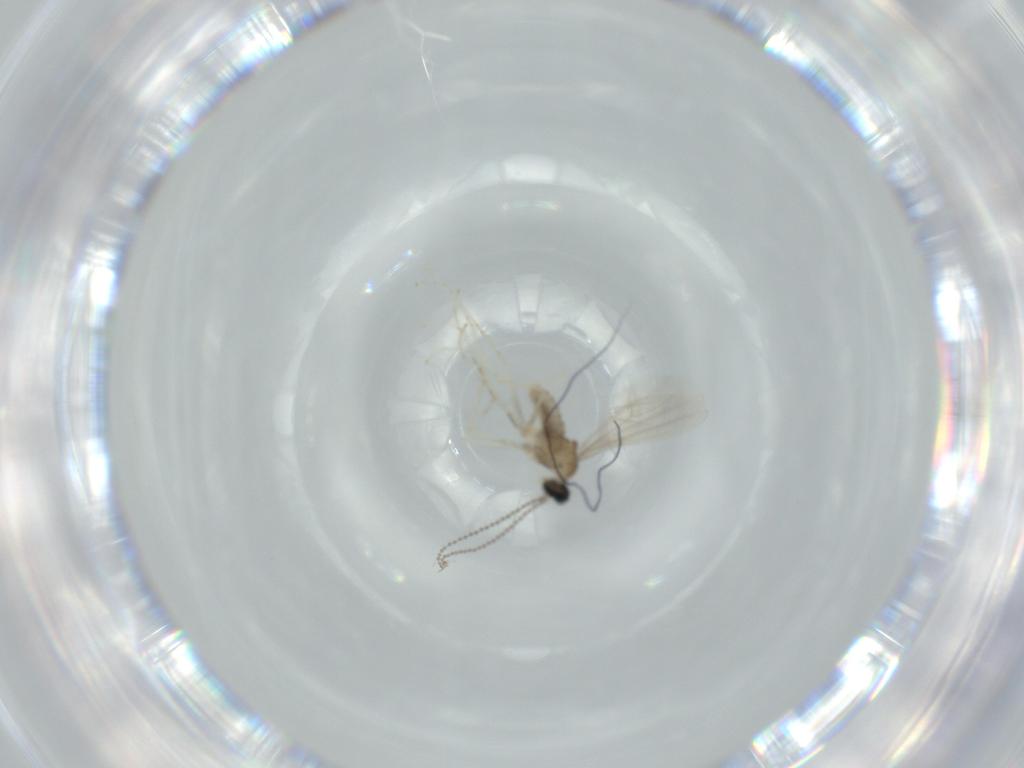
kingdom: Animalia
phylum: Arthropoda
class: Insecta
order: Diptera
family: Cecidomyiidae
